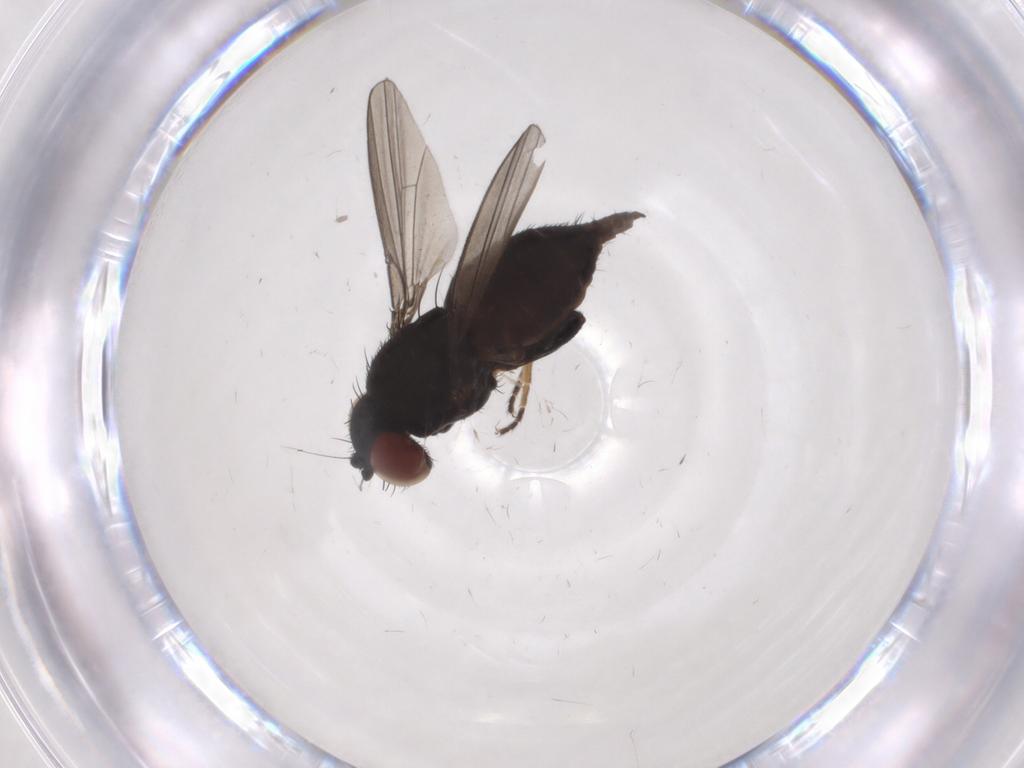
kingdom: Animalia
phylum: Arthropoda
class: Insecta
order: Diptera
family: Milichiidae
